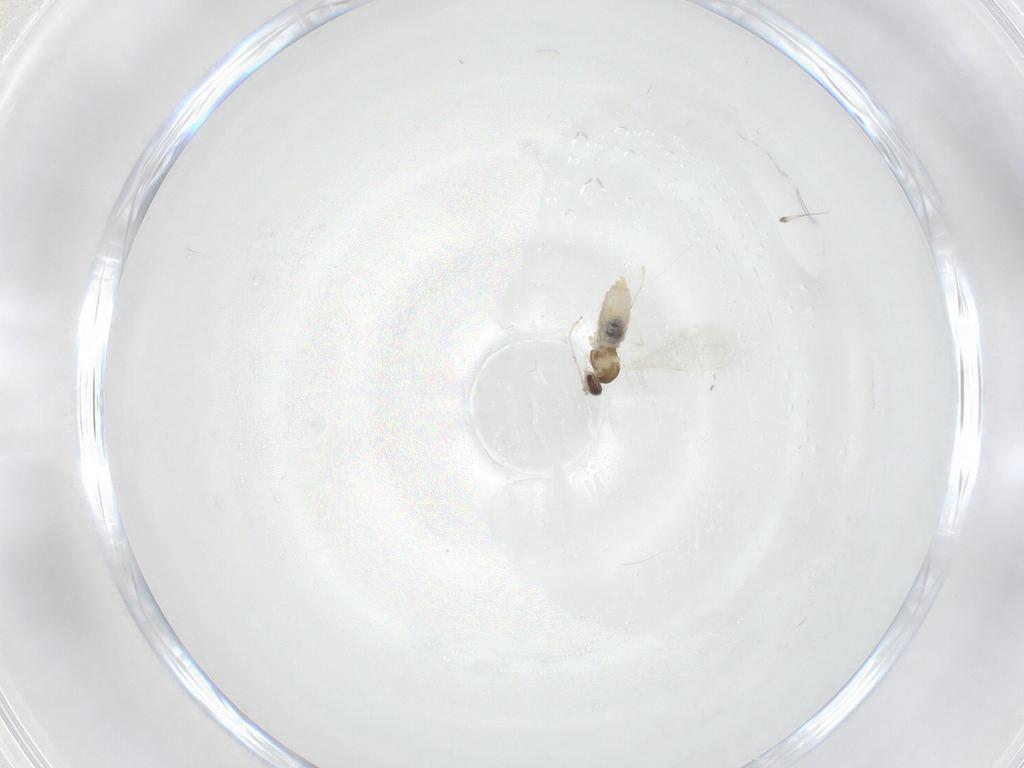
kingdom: Animalia
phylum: Arthropoda
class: Insecta
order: Diptera
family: Cecidomyiidae
